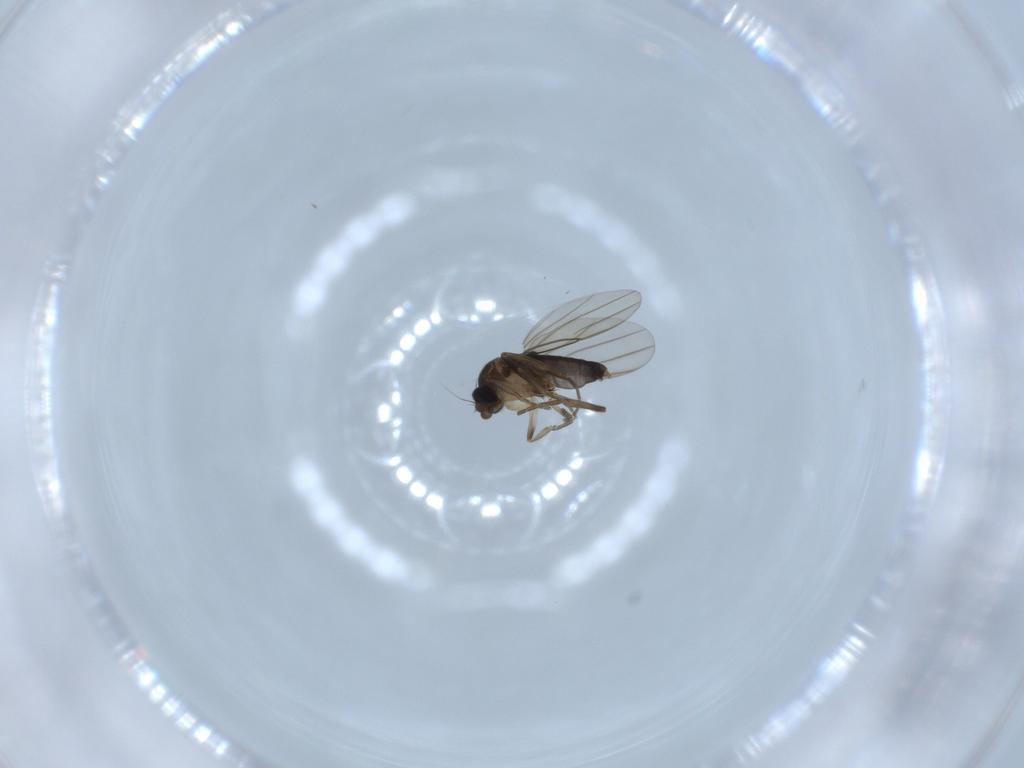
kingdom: Animalia
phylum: Arthropoda
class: Insecta
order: Diptera
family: Phoridae
